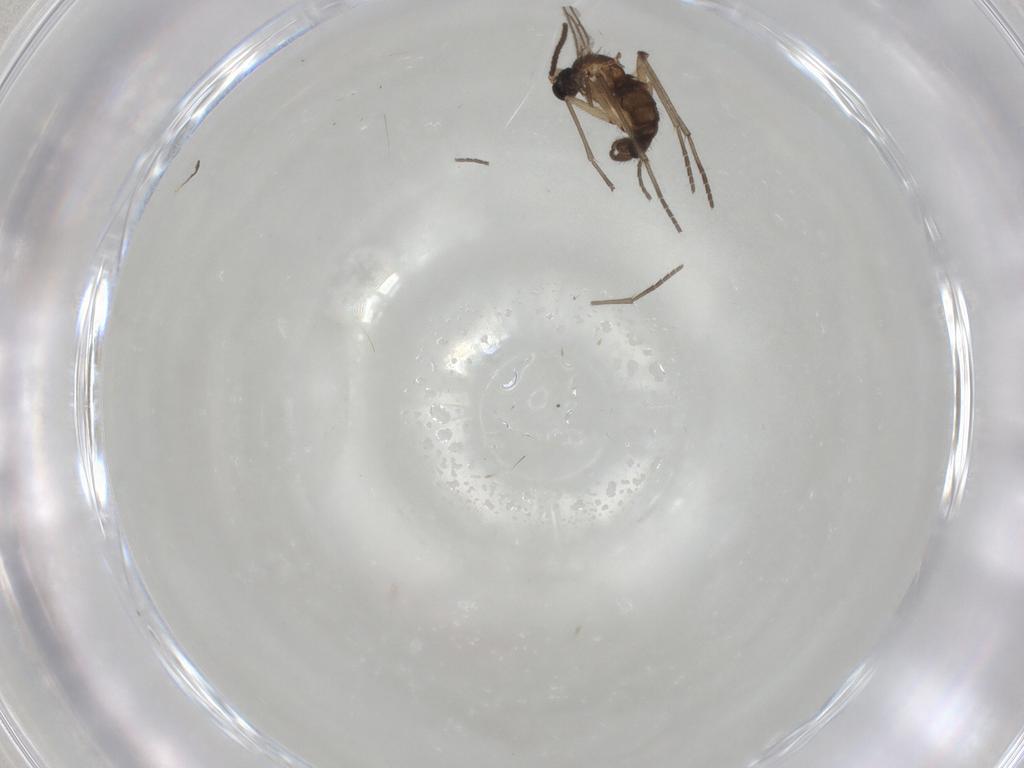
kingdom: Animalia
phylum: Arthropoda
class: Insecta
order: Diptera
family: Sciaridae
